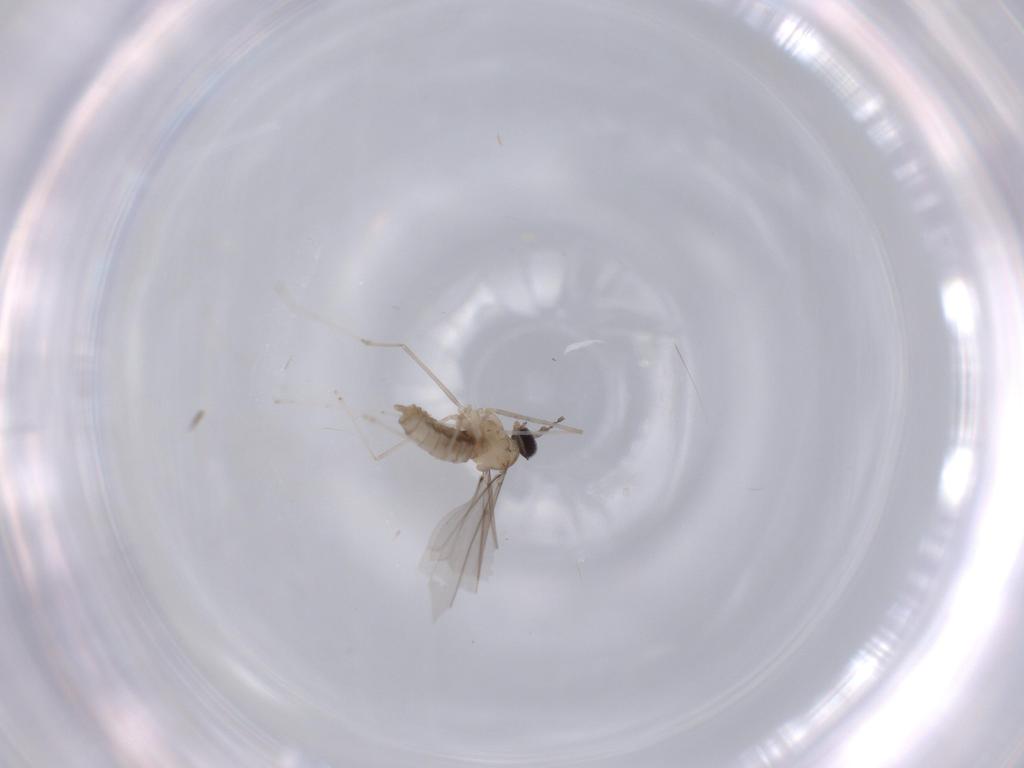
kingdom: Animalia
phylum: Arthropoda
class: Insecta
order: Diptera
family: Cecidomyiidae
